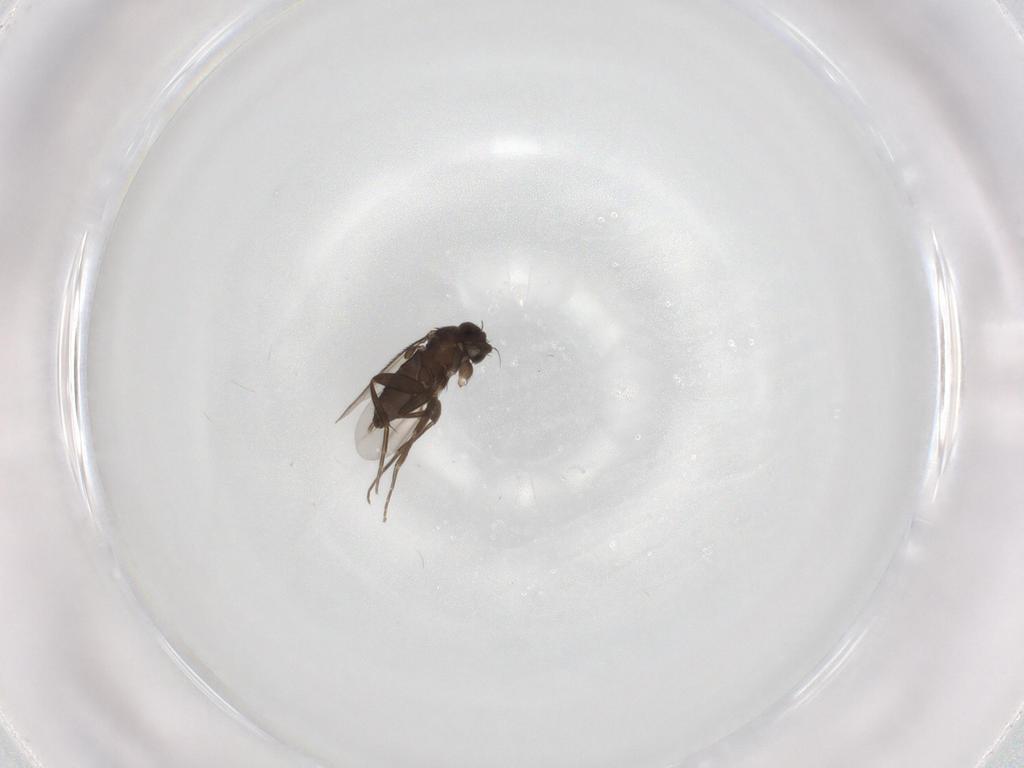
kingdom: Animalia
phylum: Arthropoda
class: Insecta
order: Diptera
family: Phoridae
